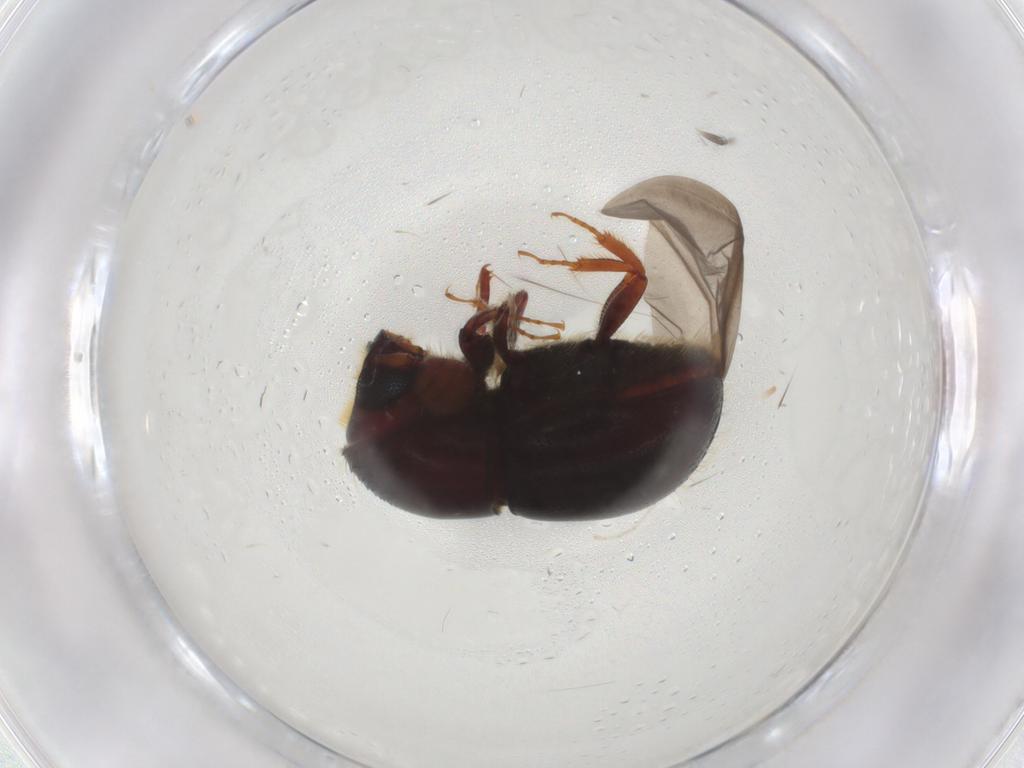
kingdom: Animalia
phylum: Arthropoda
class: Insecta
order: Coleoptera
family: Curculionidae
